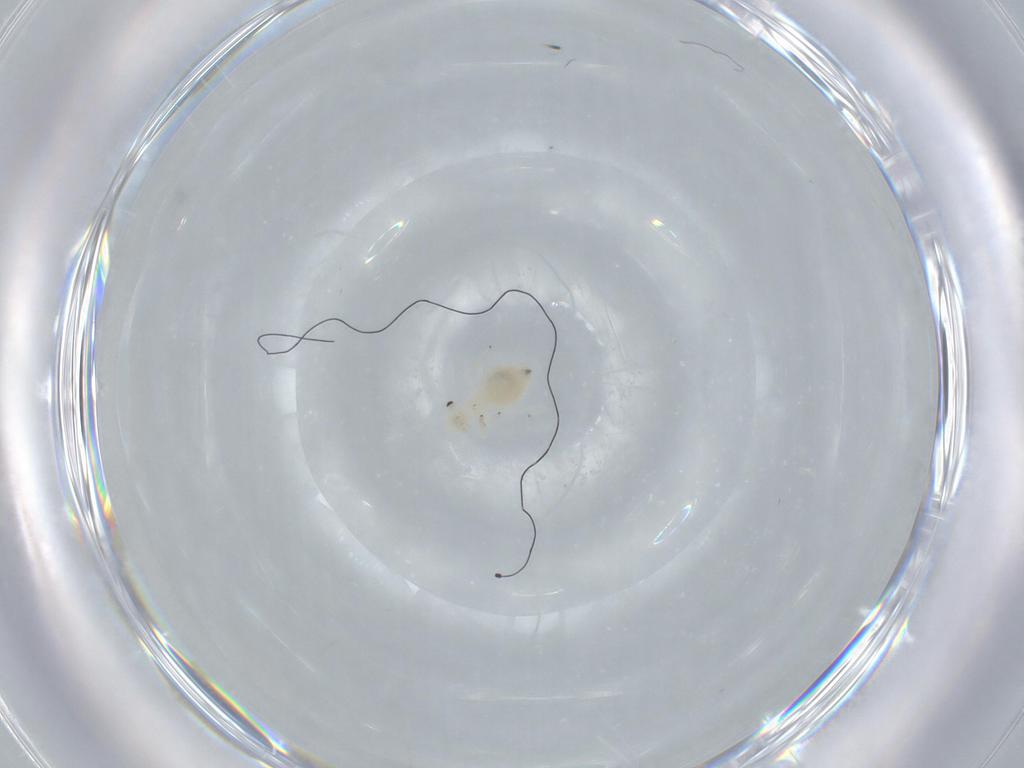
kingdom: Animalia
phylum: Arthropoda
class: Insecta
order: Psocodea
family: Caeciliusidae
